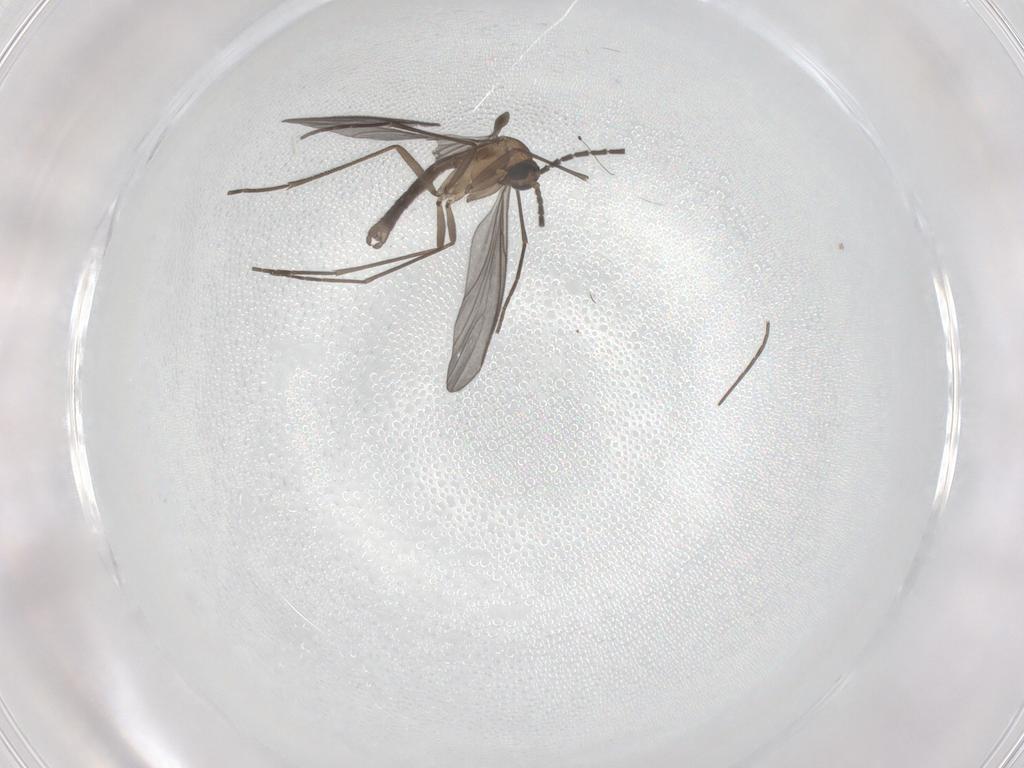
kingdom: Animalia
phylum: Arthropoda
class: Insecta
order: Diptera
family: Sciaridae
